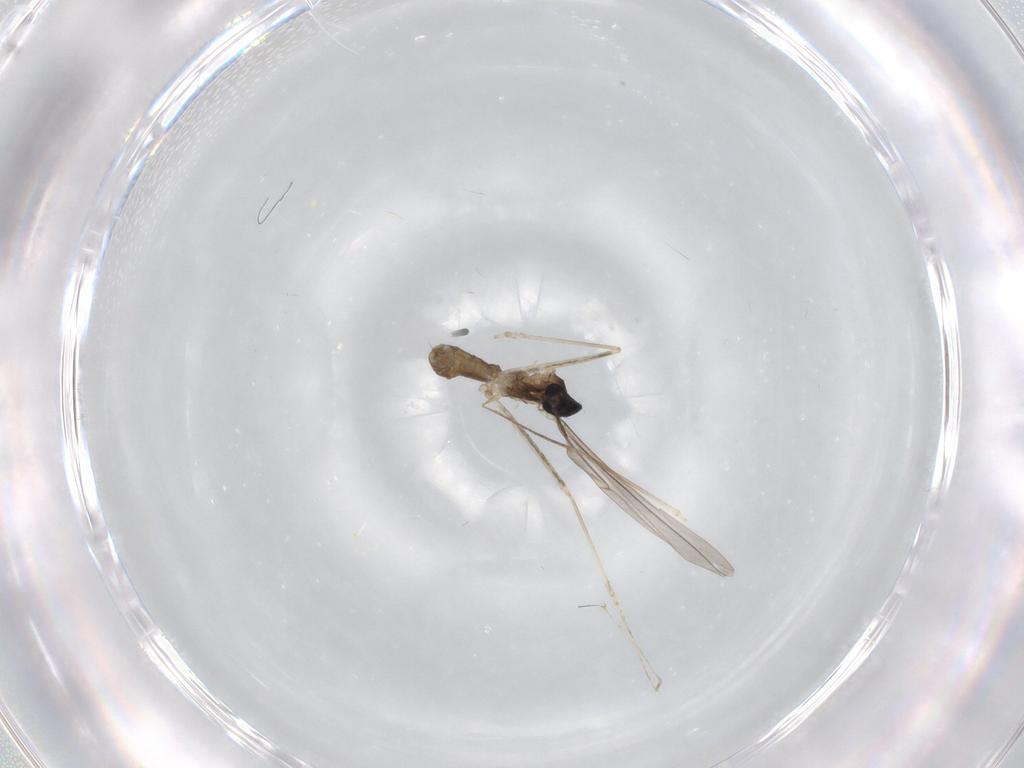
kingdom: Animalia
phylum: Arthropoda
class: Insecta
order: Diptera
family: Cecidomyiidae
